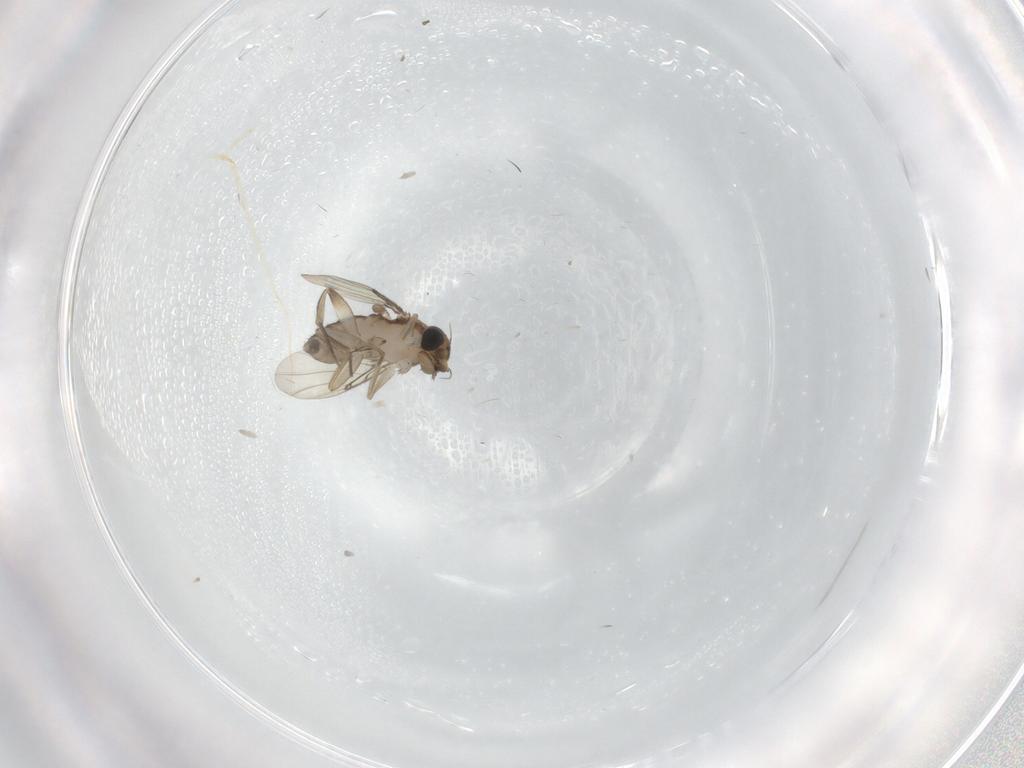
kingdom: Animalia
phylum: Arthropoda
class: Insecta
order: Diptera
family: Phoridae
